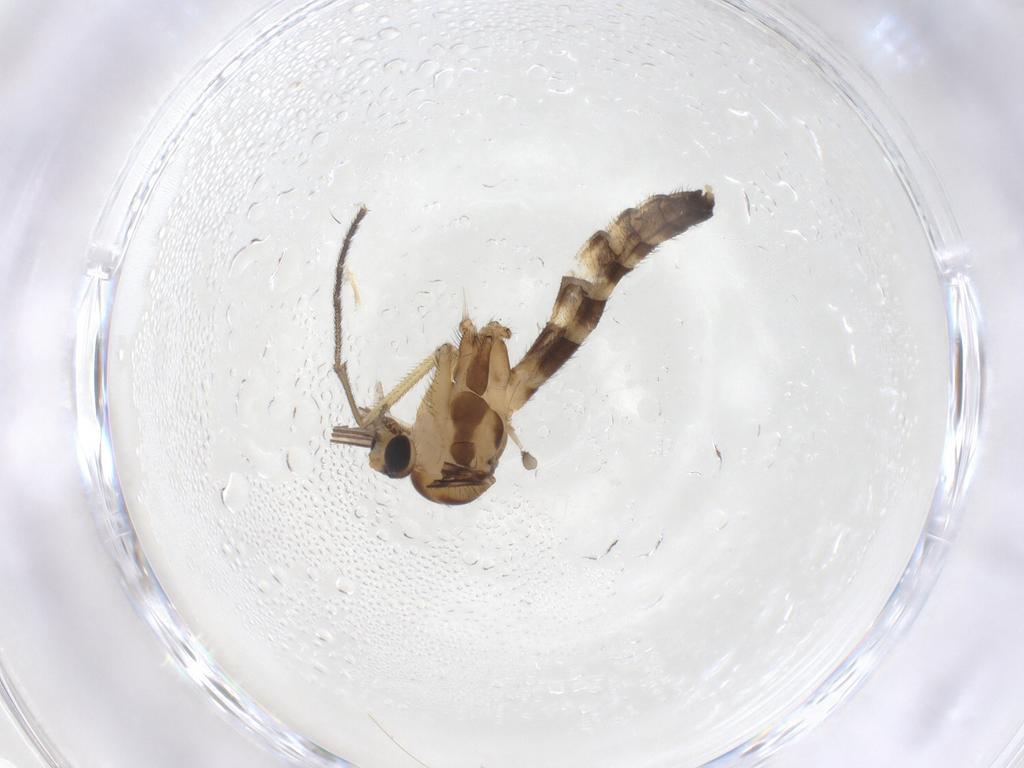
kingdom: Animalia
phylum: Arthropoda
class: Insecta
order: Diptera
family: Keroplatidae
